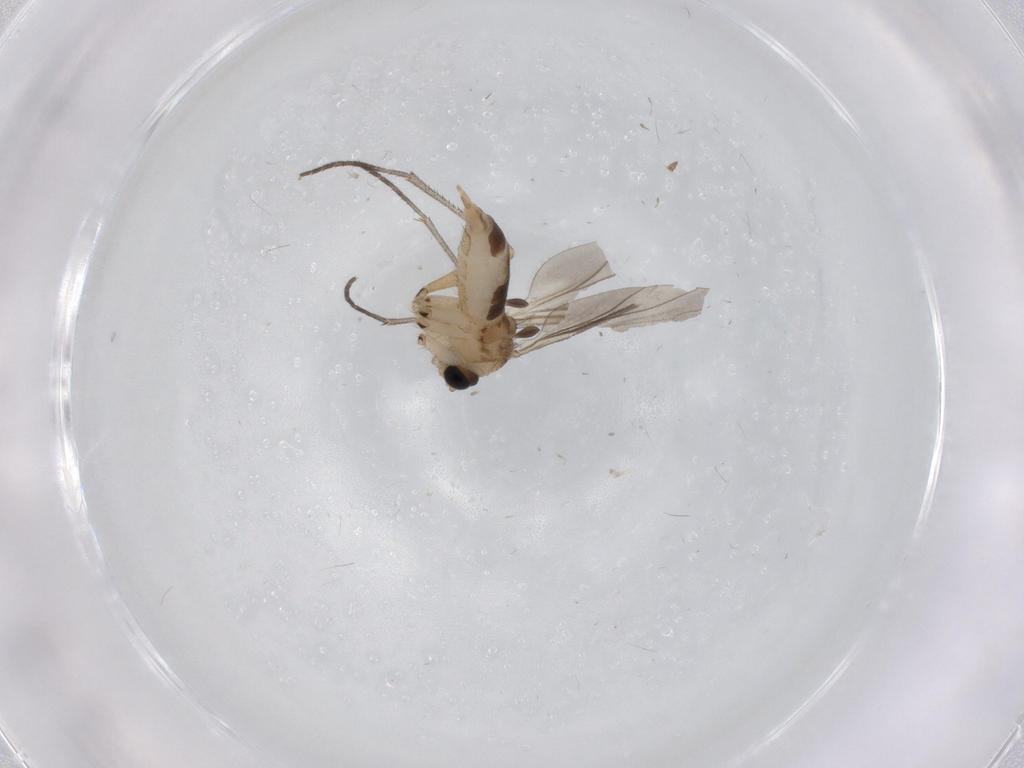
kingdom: Animalia
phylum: Arthropoda
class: Insecta
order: Diptera
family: Sciaridae
